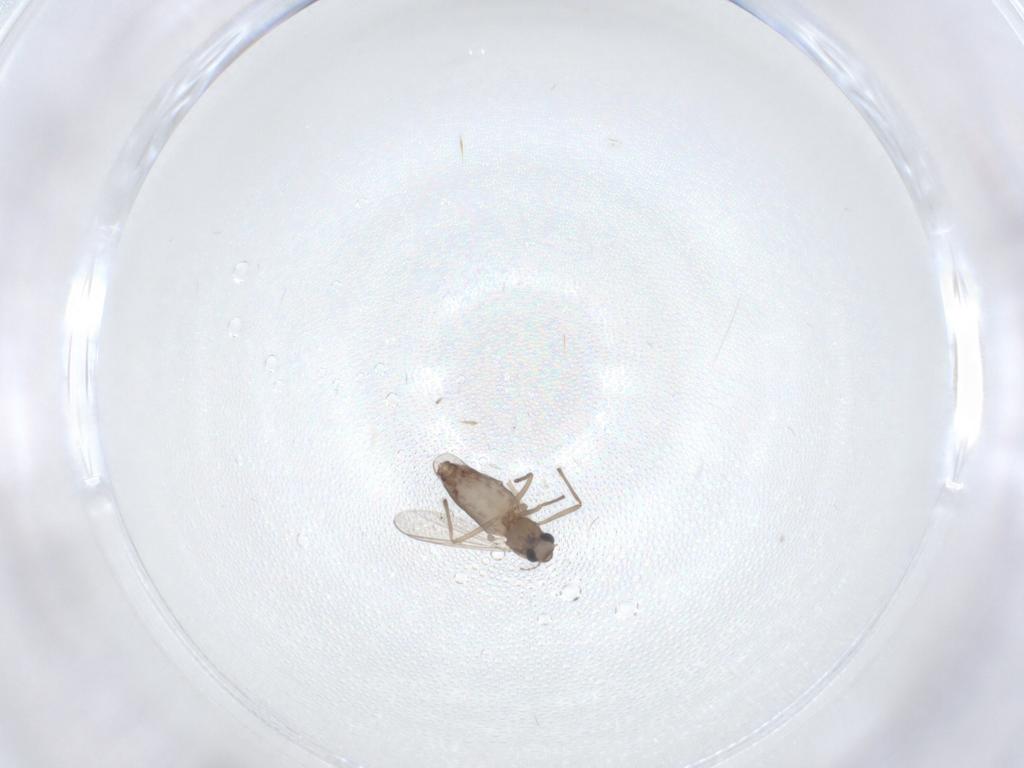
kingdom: Animalia
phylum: Arthropoda
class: Insecta
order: Diptera
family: Chironomidae
